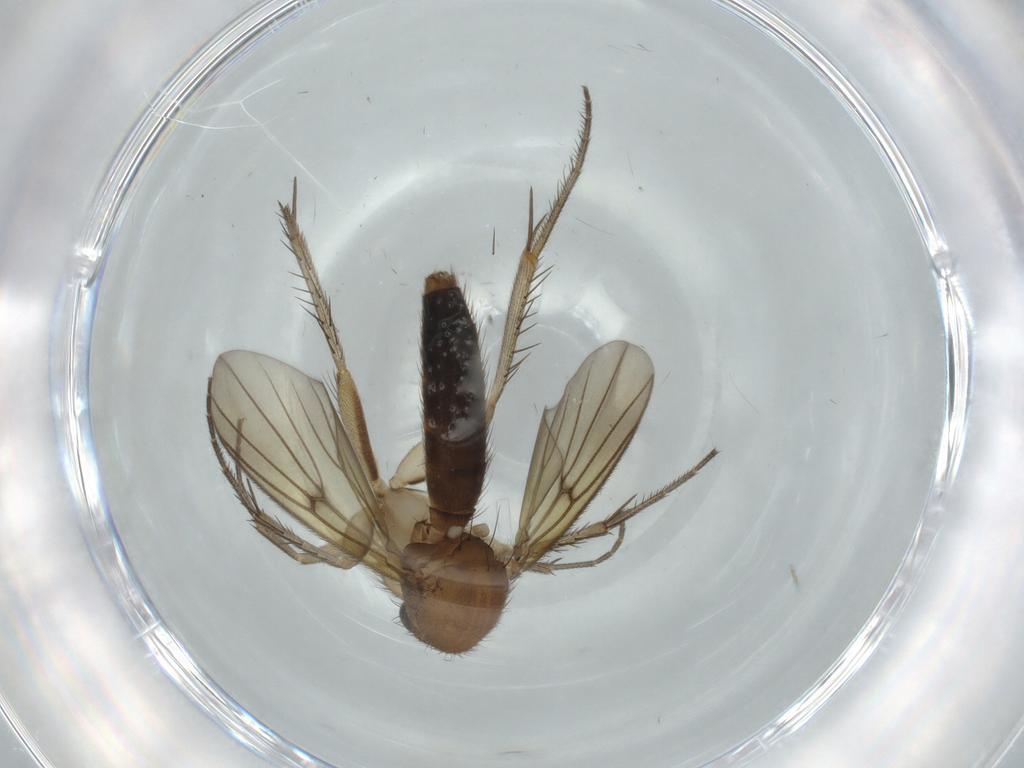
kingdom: Animalia
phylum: Arthropoda
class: Insecta
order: Diptera
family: Mycetophilidae
